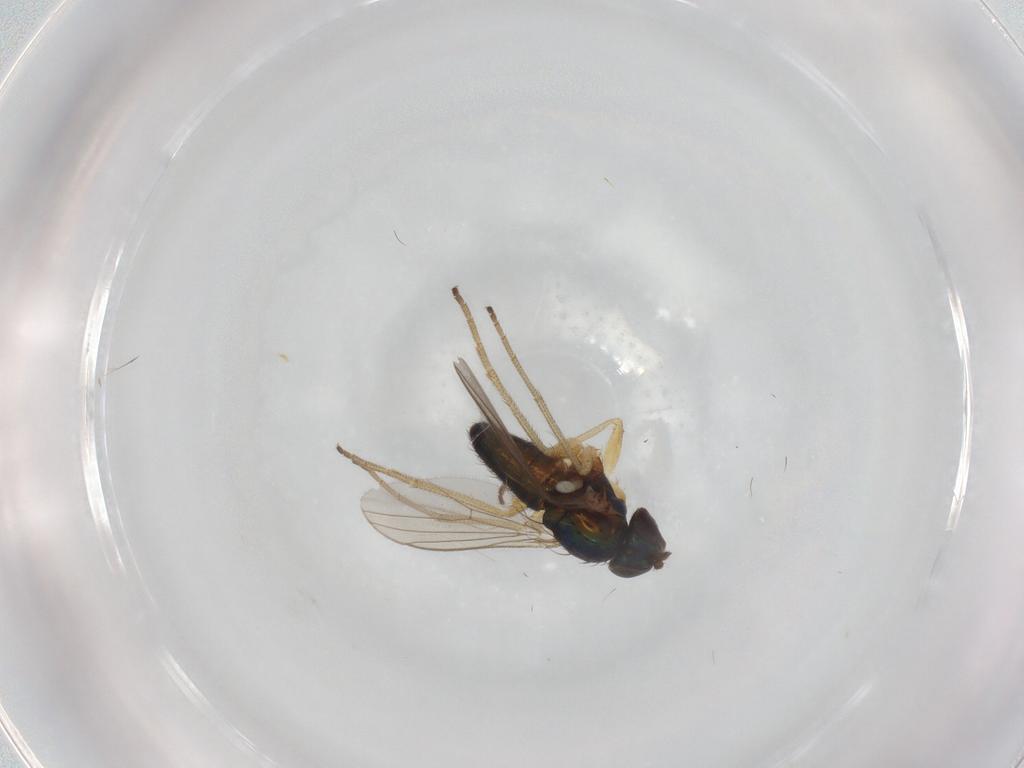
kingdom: Animalia
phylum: Arthropoda
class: Insecta
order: Diptera
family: Dolichopodidae
